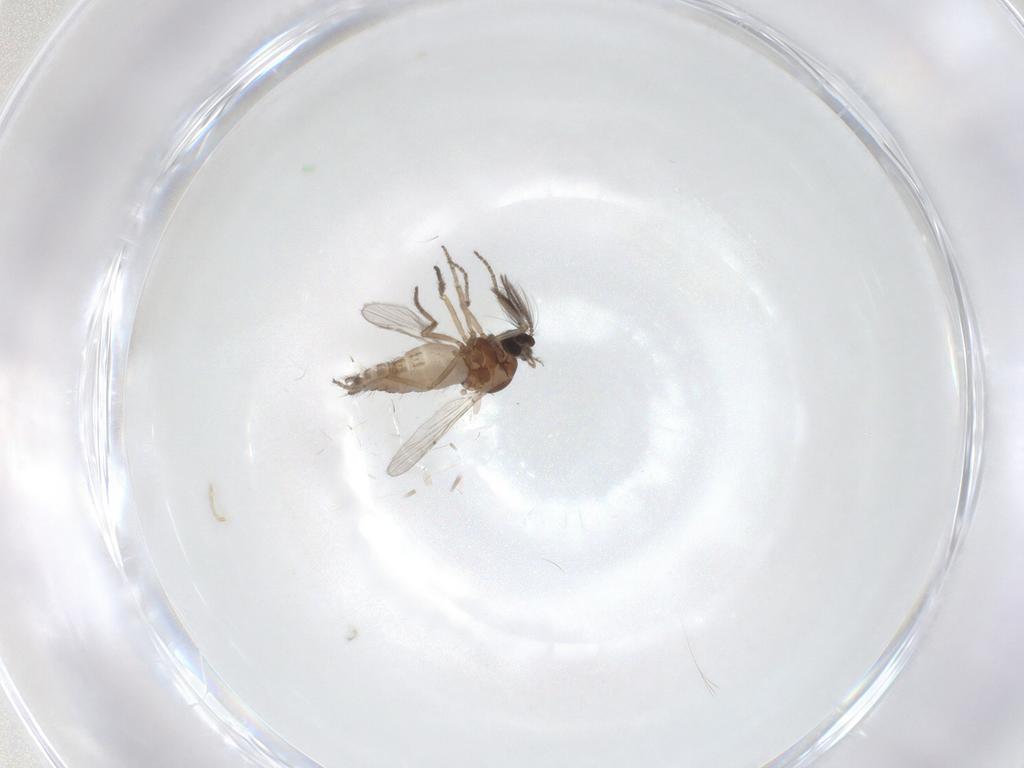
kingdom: Animalia
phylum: Arthropoda
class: Insecta
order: Diptera
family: Ceratopogonidae
